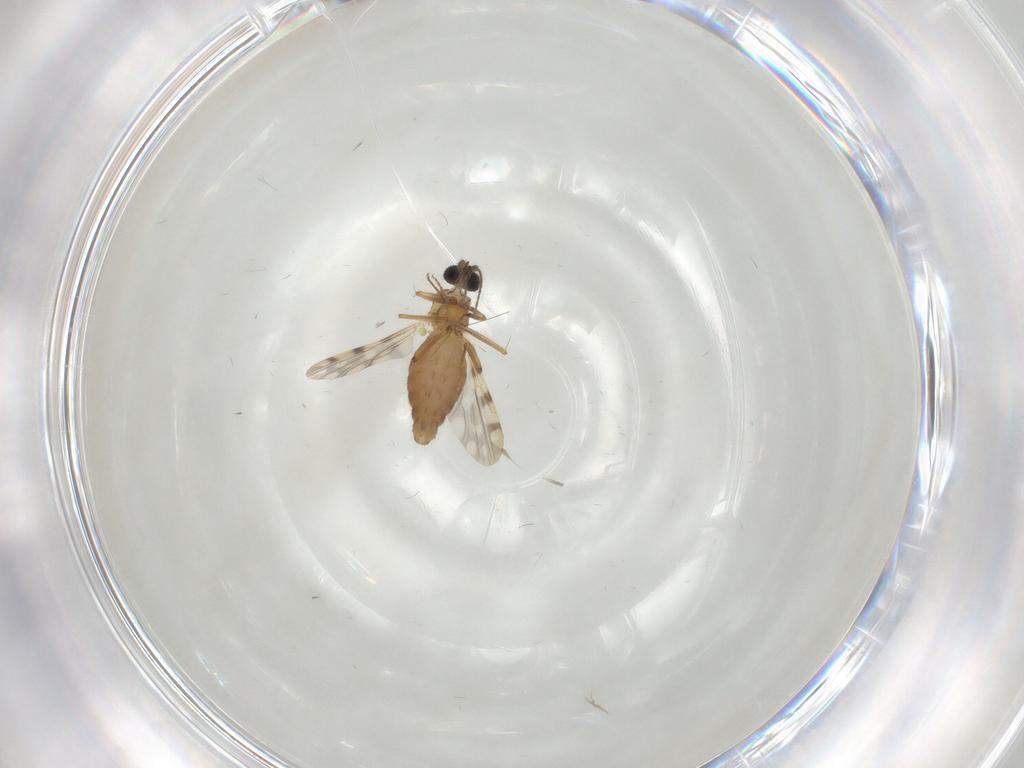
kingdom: Animalia
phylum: Arthropoda
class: Insecta
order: Diptera
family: Ceratopogonidae
